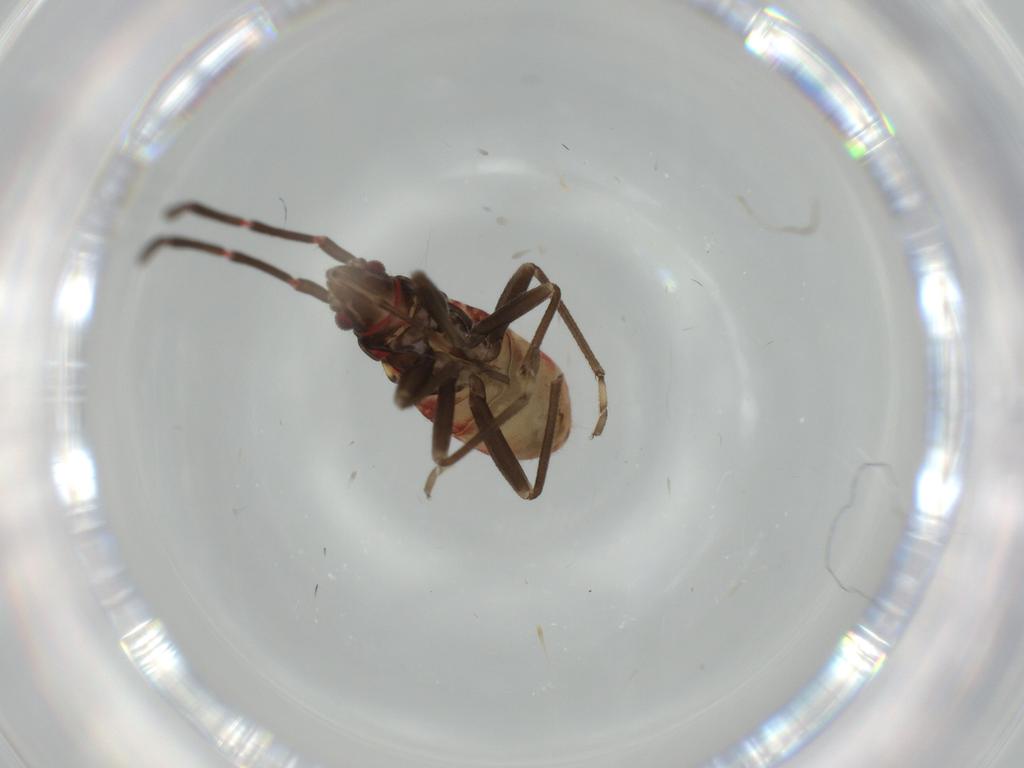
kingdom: Animalia
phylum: Arthropoda
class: Insecta
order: Hemiptera
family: Rhyparochromidae
